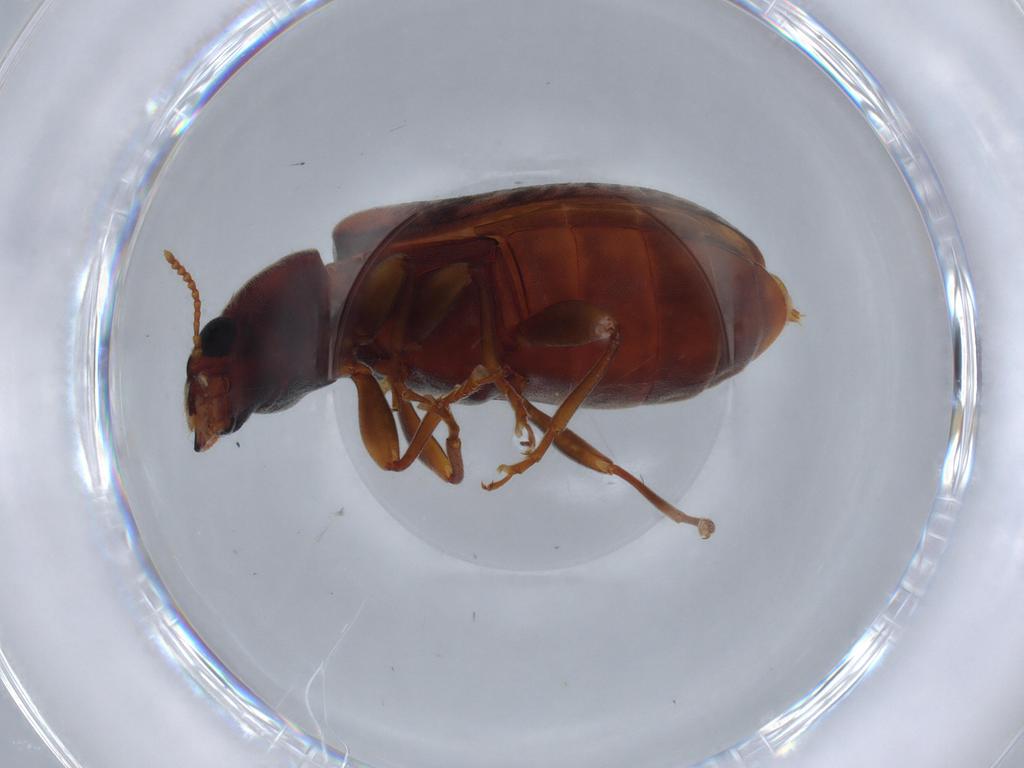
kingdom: Animalia
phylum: Arthropoda
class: Insecta
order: Coleoptera
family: Mycteridae
